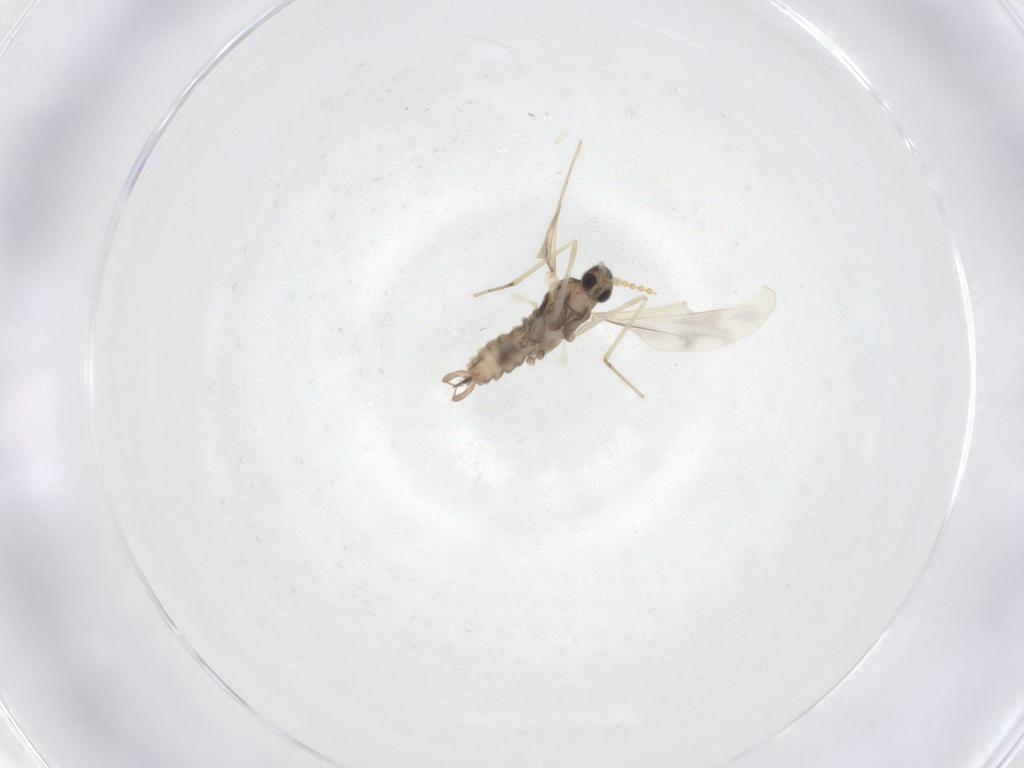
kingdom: Animalia
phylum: Arthropoda
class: Insecta
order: Diptera
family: Cecidomyiidae
